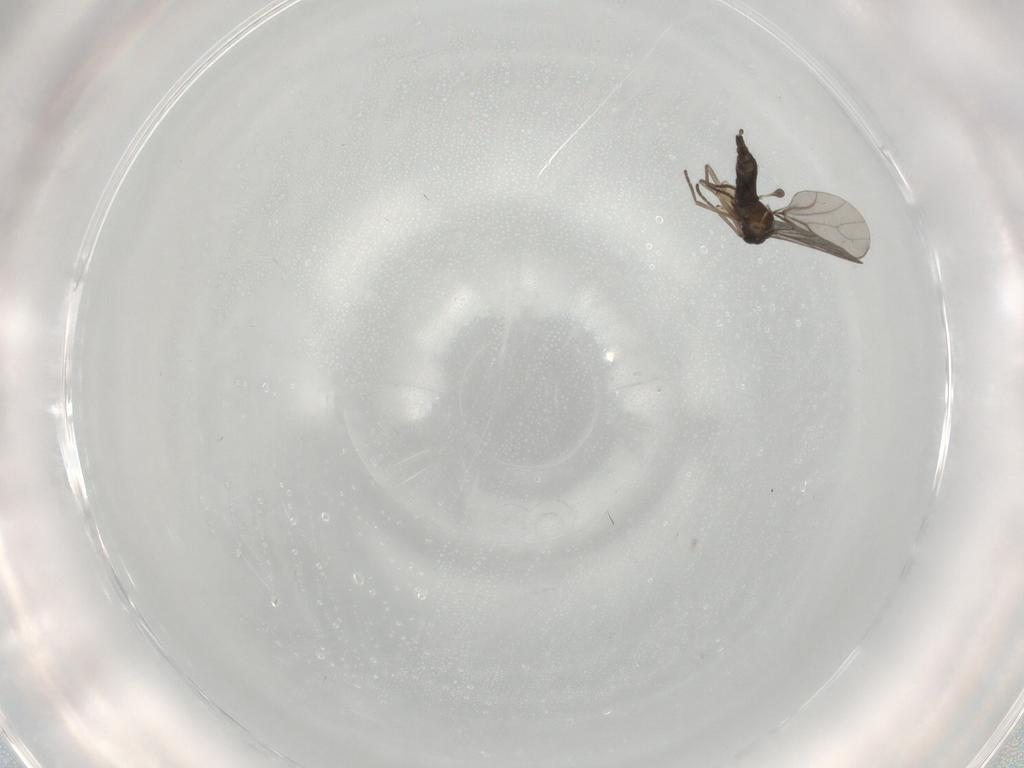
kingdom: Animalia
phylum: Arthropoda
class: Insecta
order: Diptera
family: Sciaridae
